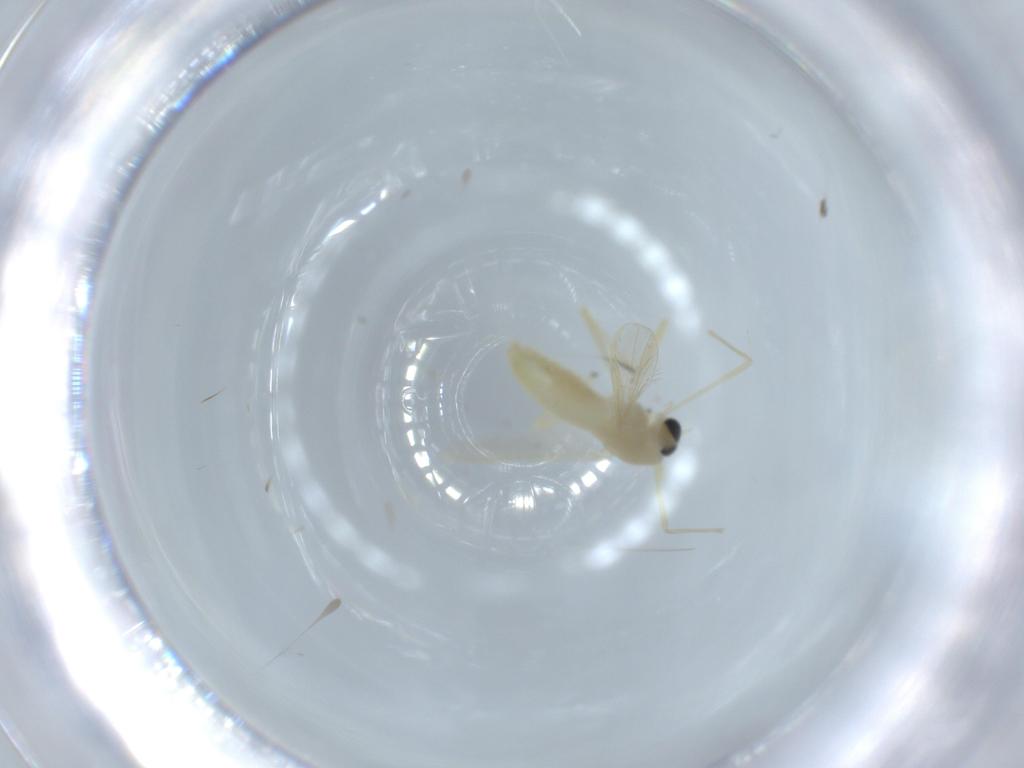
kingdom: Animalia
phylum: Arthropoda
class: Insecta
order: Diptera
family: Chironomidae
